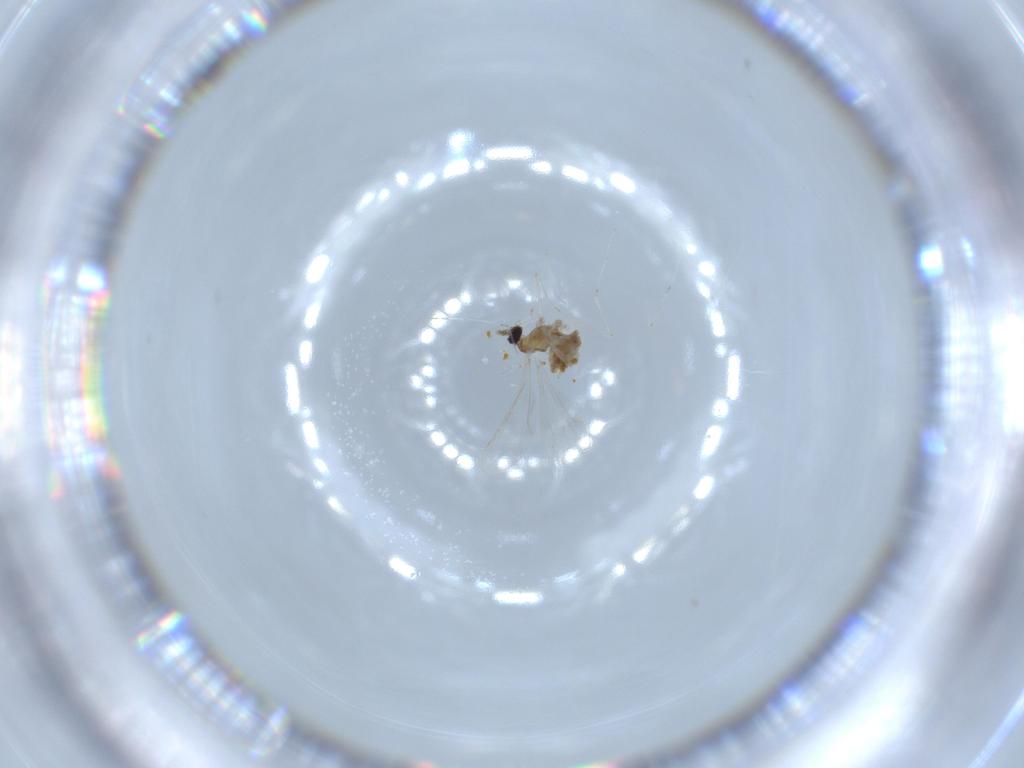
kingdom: Animalia
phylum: Arthropoda
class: Insecta
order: Diptera
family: Cecidomyiidae
